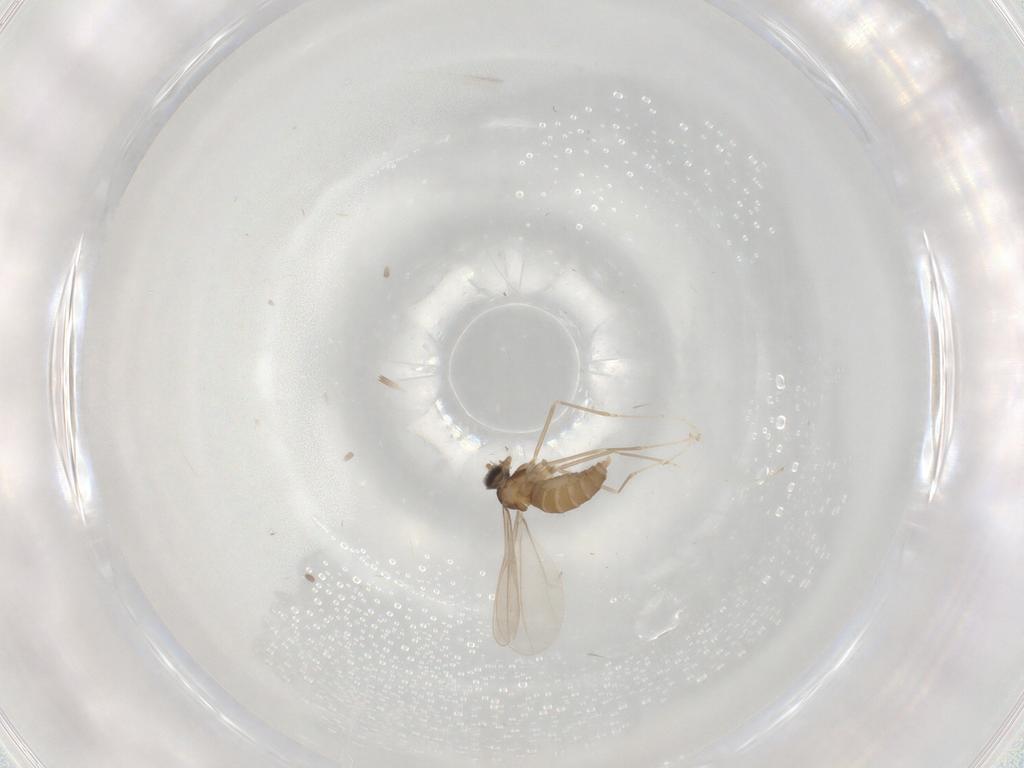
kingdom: Animalia
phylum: Arthropoda
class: Insecta
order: Diptera
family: Cecidomyiidae
